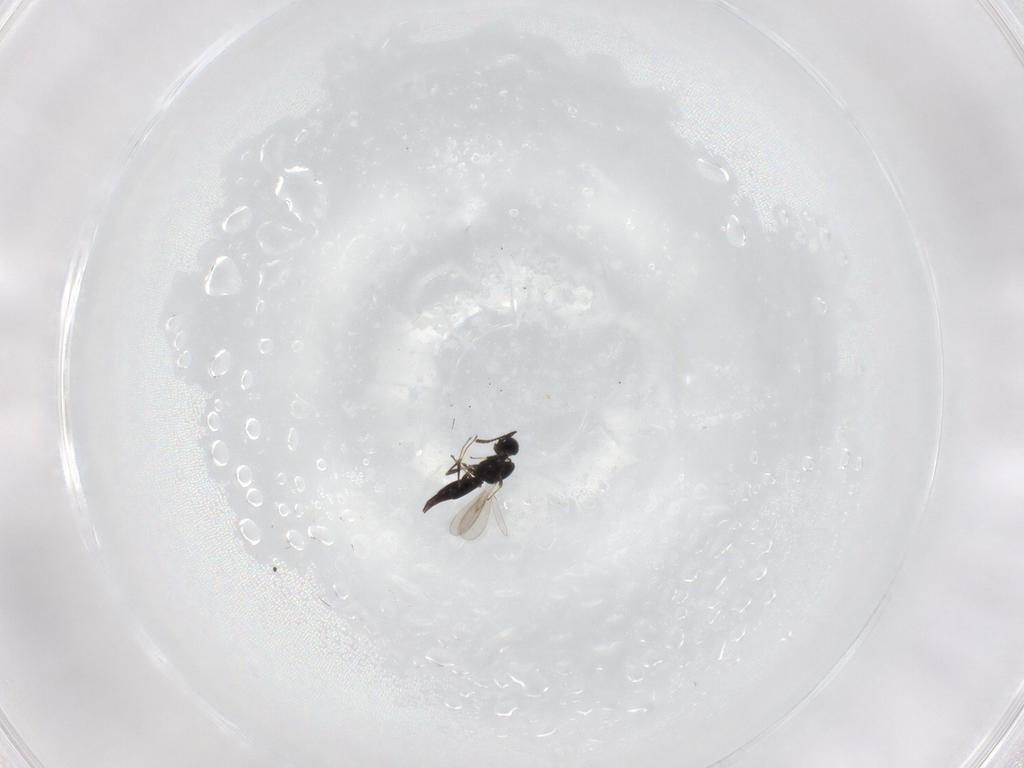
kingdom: Animalia
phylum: Arthropoda
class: Insecta
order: Hymenoptera
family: Scelionidae
